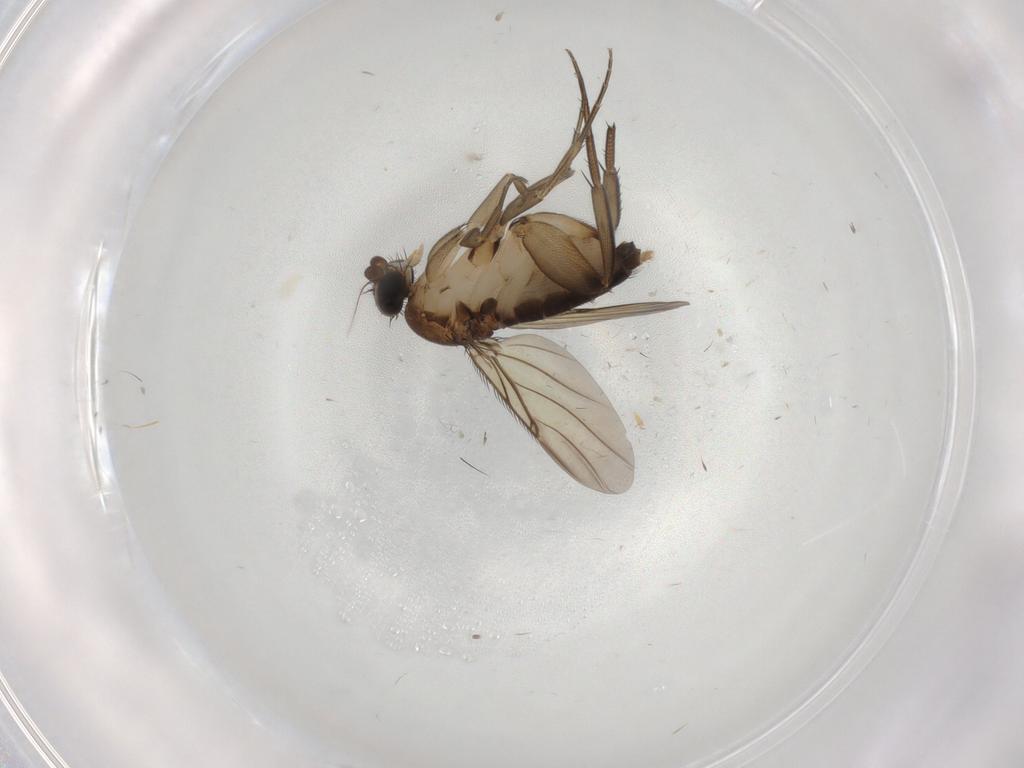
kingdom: Animalia
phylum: Arthropoda
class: Insecta
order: Diptera
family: Phoridae
